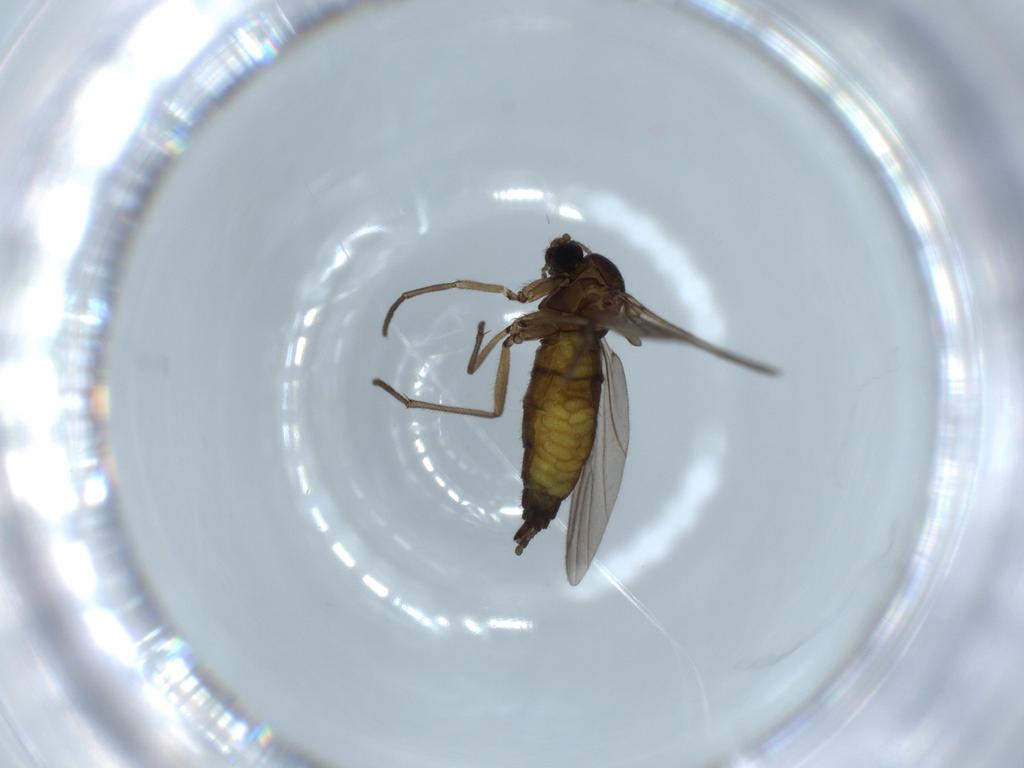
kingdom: Animalia
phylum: Arthropoda
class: Insecta
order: Diptera
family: Sciaridae
